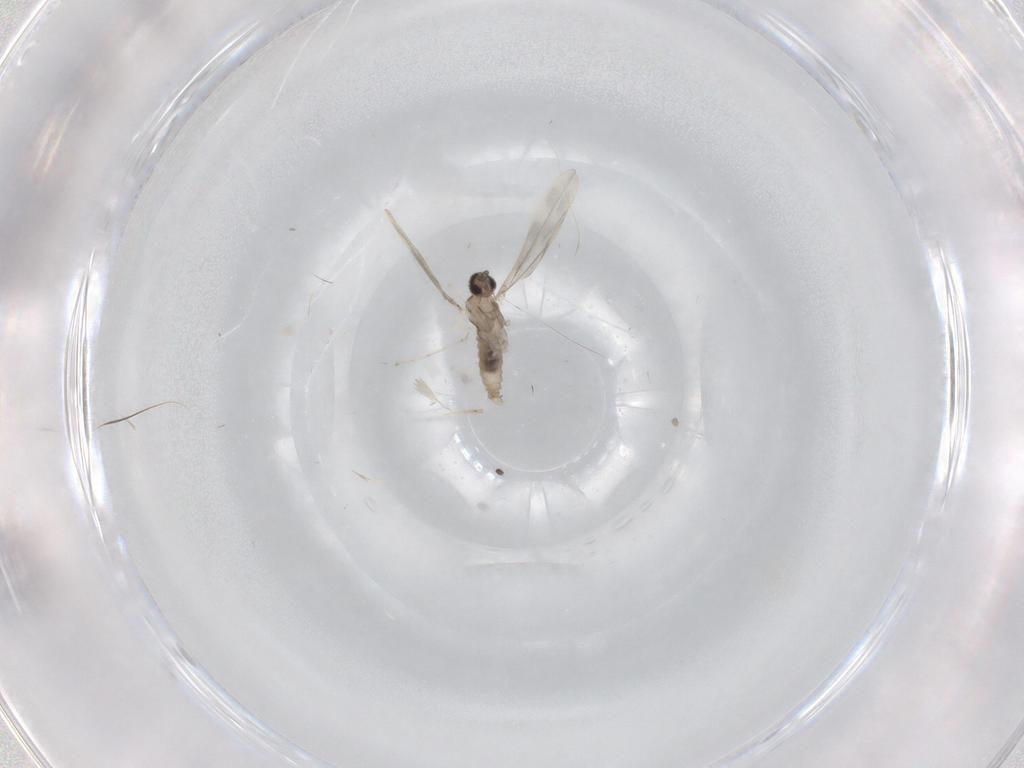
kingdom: Animalia
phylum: Arthropoda
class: Insecta
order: Diptera
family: Cecidomyiidae
